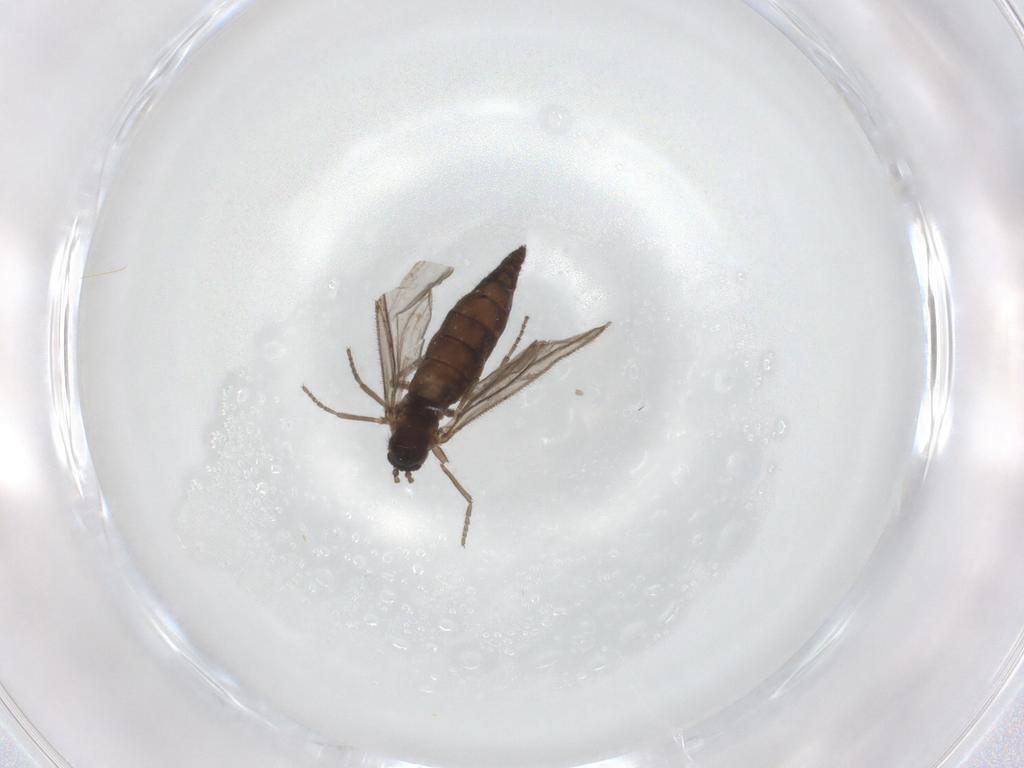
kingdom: Animalia
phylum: Arthropoda
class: Insecta
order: Diptera
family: Sciaridae
